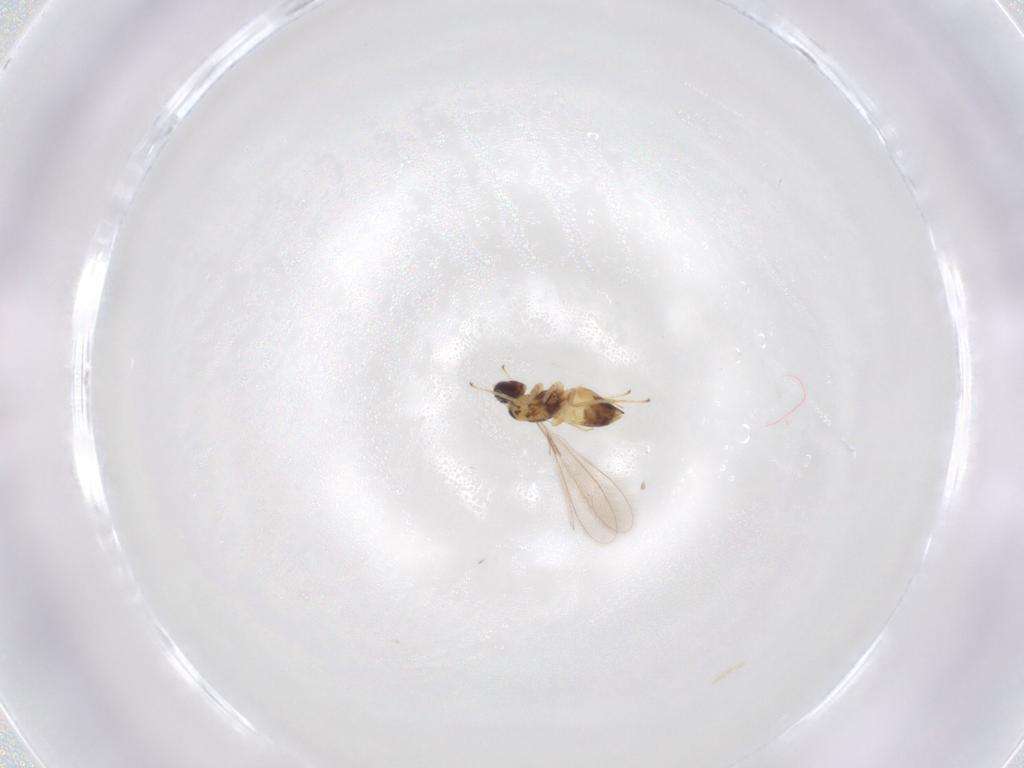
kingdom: Animalia
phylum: Arthropoda
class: Insecta
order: Hymenoptera
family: Mymaridae
